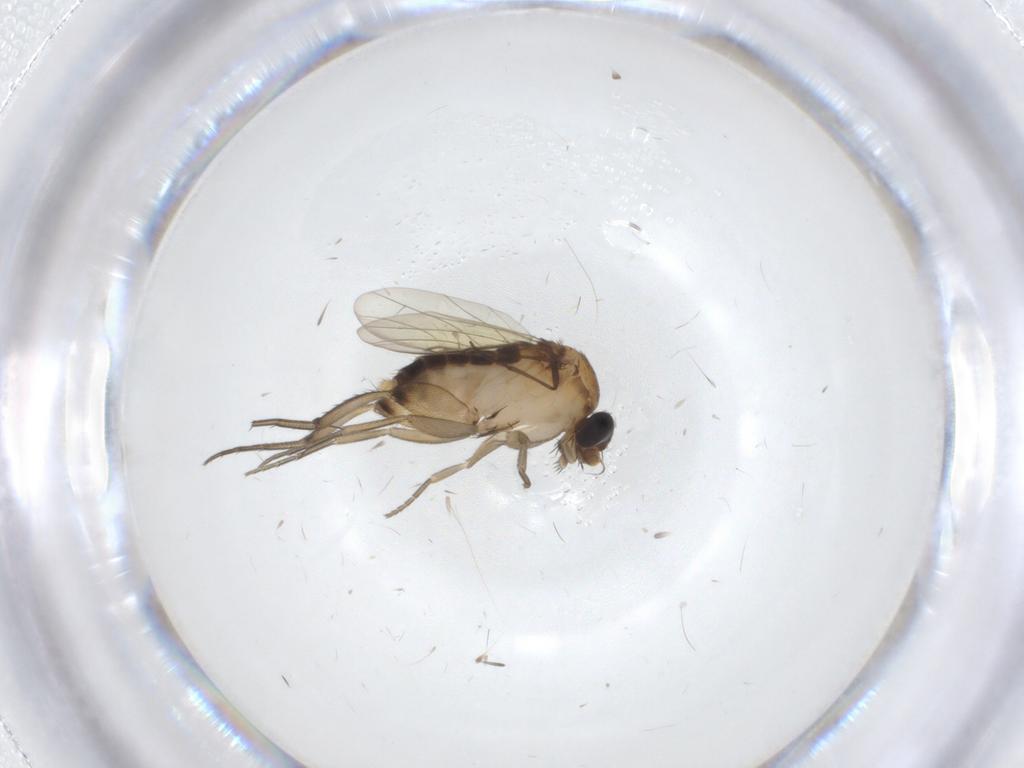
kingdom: Animalia
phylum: Arthropoda
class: Insecta
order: Diptera
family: Phoridae
